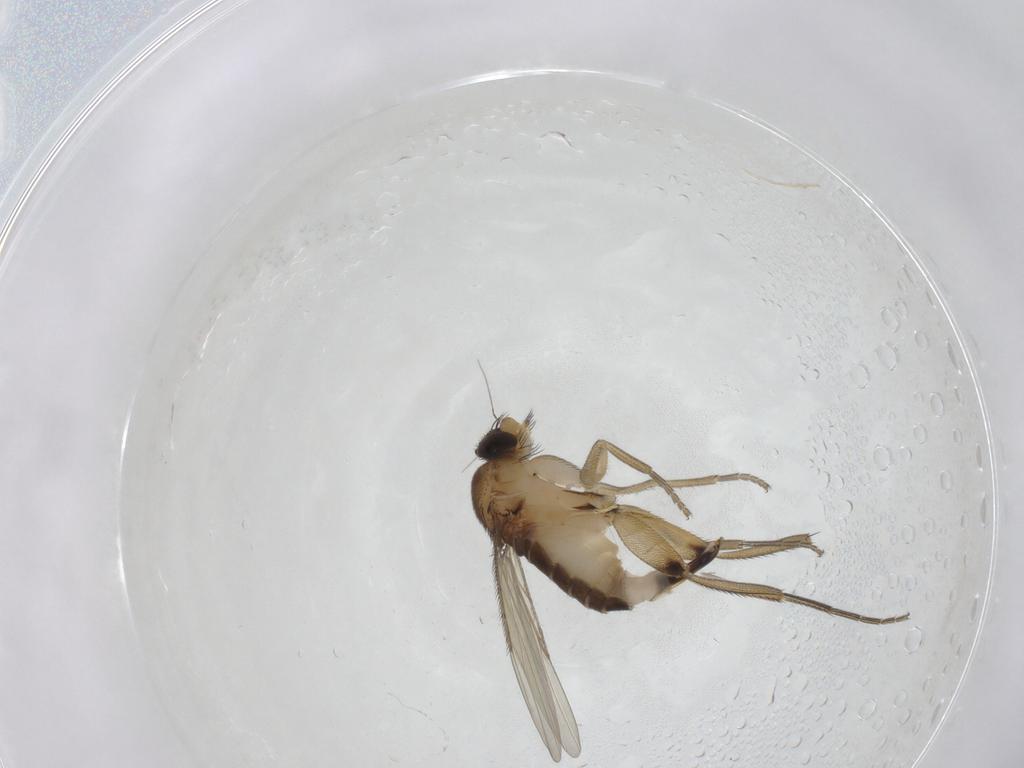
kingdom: Animalia
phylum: Arthropoda
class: Insecta
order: Diptera
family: Phoridae
